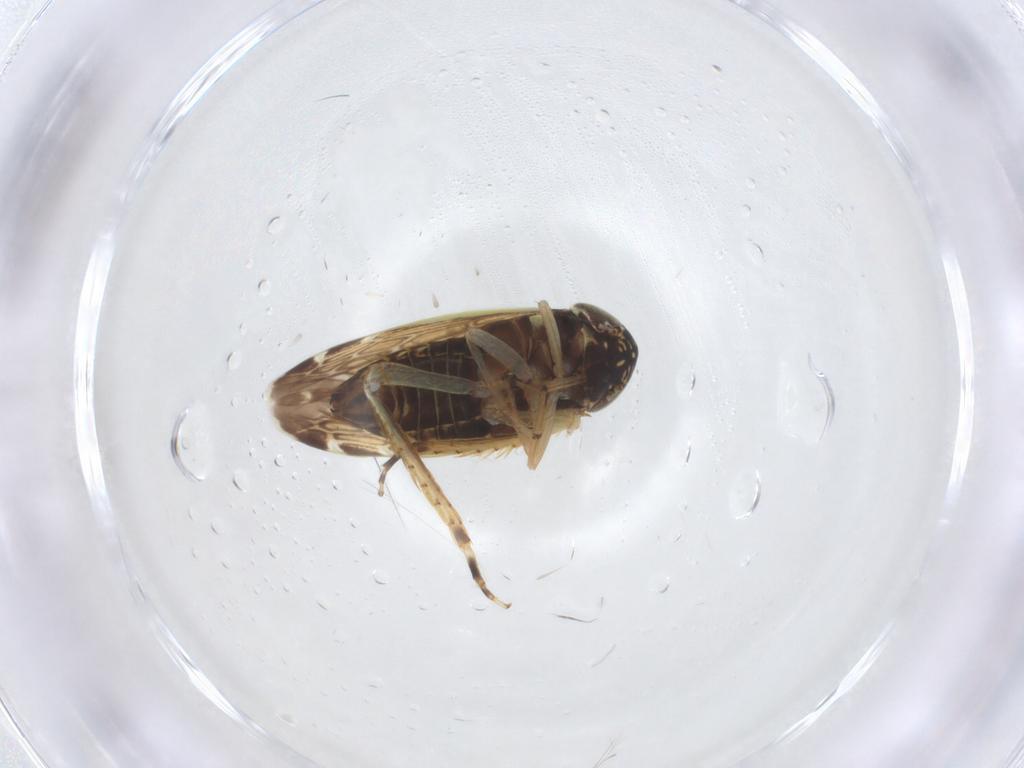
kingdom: Animalia
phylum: Arthropoda
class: Insecta
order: Hemiptera
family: Cicadellidae
